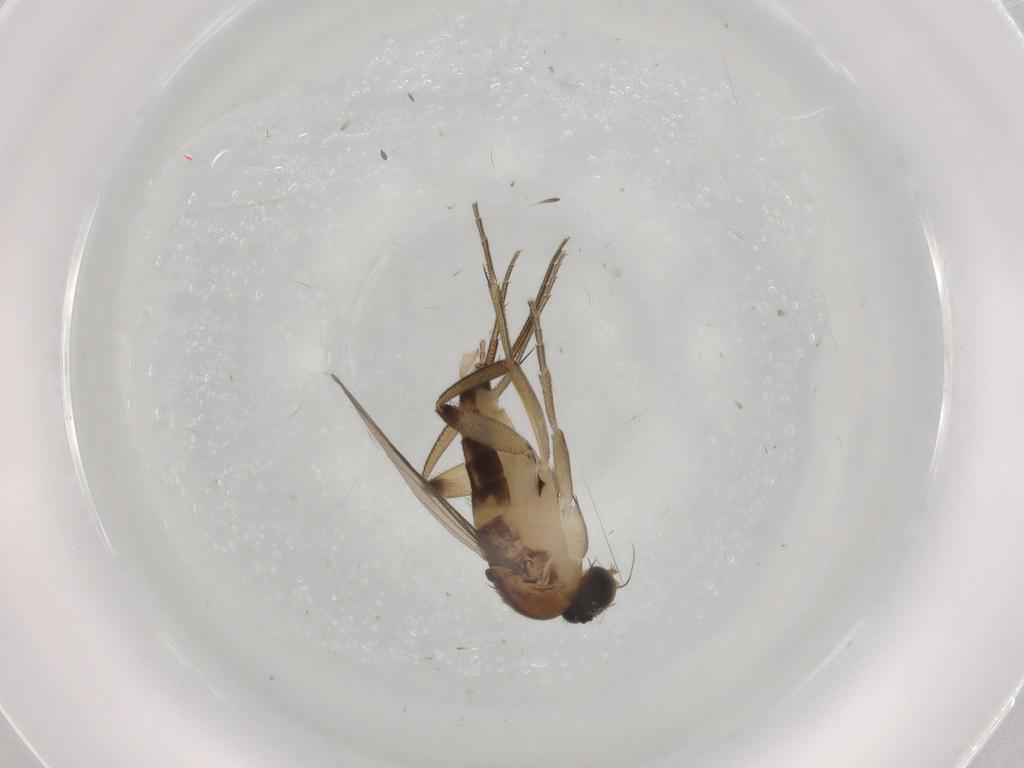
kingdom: Animalia
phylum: Arthropoda
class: Insecta
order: Diptera
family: Phoridae
